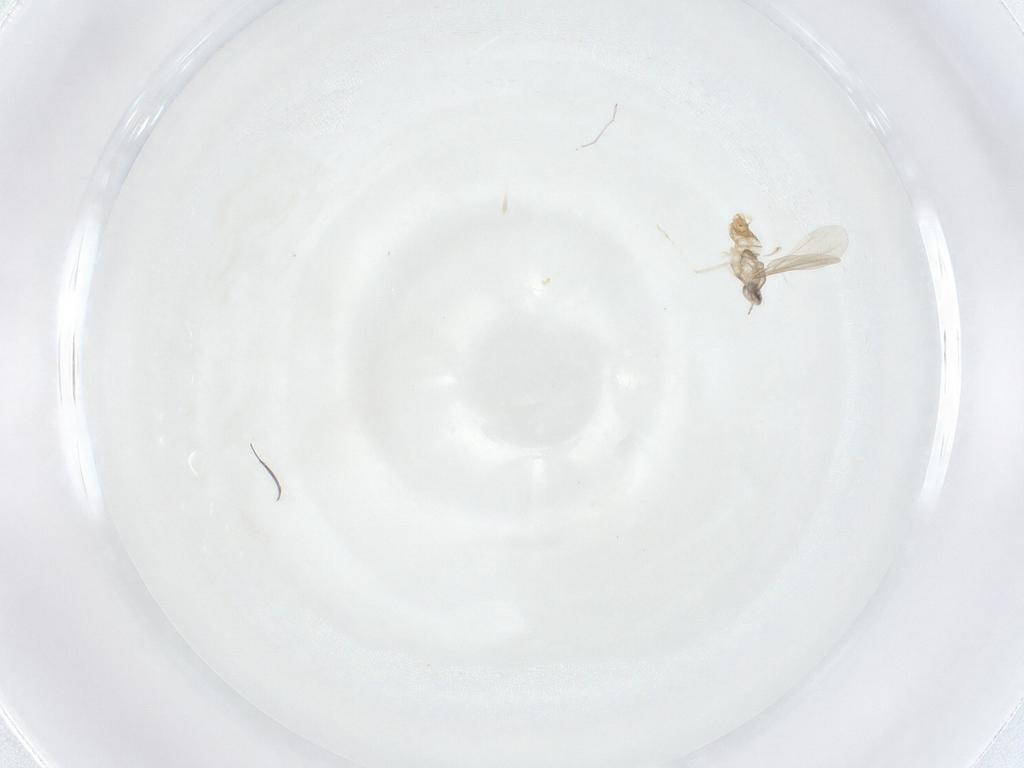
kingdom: Animalia
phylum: Arthropoda
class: Insecta
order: Diptera
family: Cecidomyiidae
